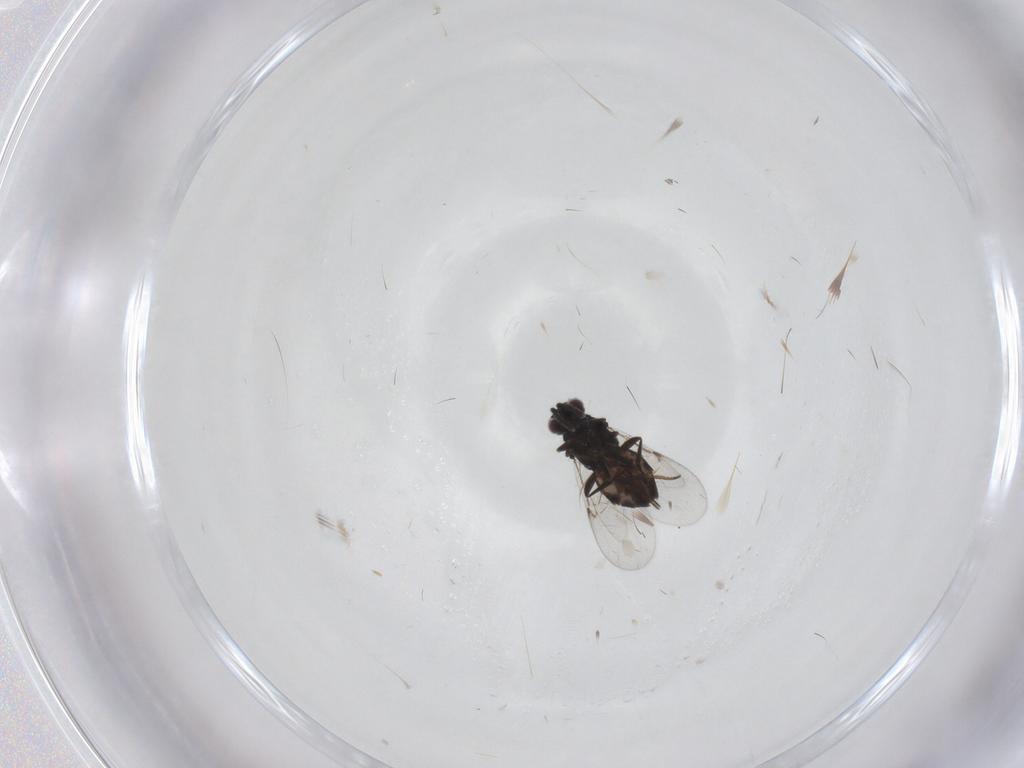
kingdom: Animalia
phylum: Arthropoda
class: Insecta
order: Hymenoptera
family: Encyrtidae
